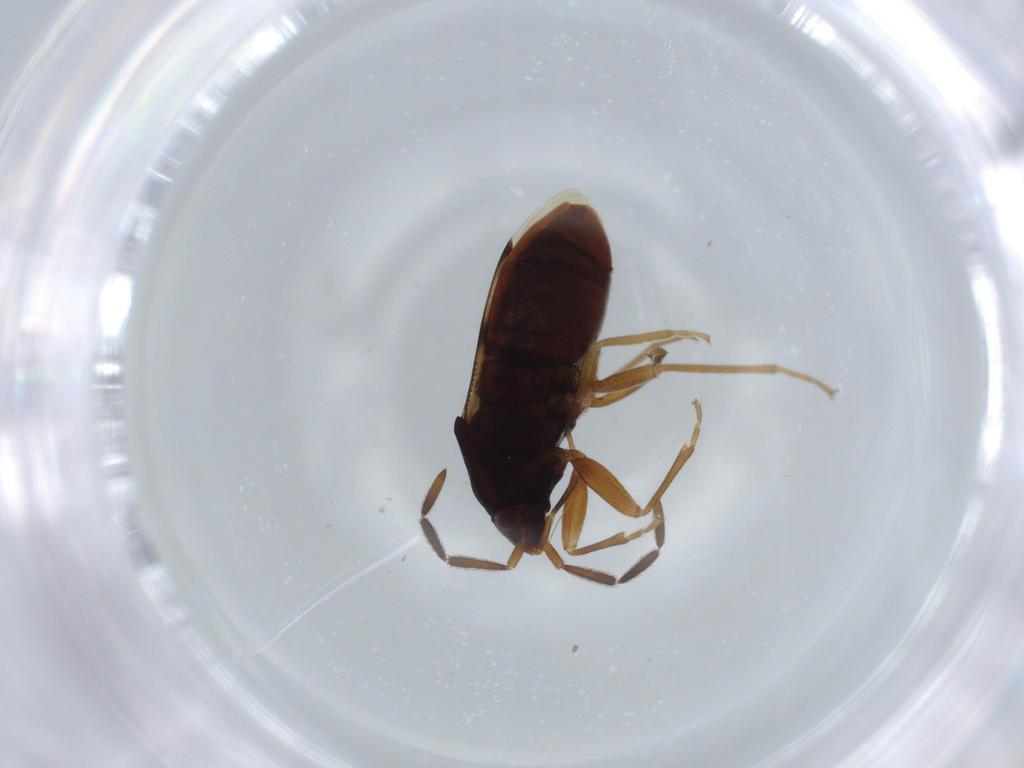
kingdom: Animalia
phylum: Arthropoda
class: Insecta
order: Hemiptera
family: Rhyparochromidae
